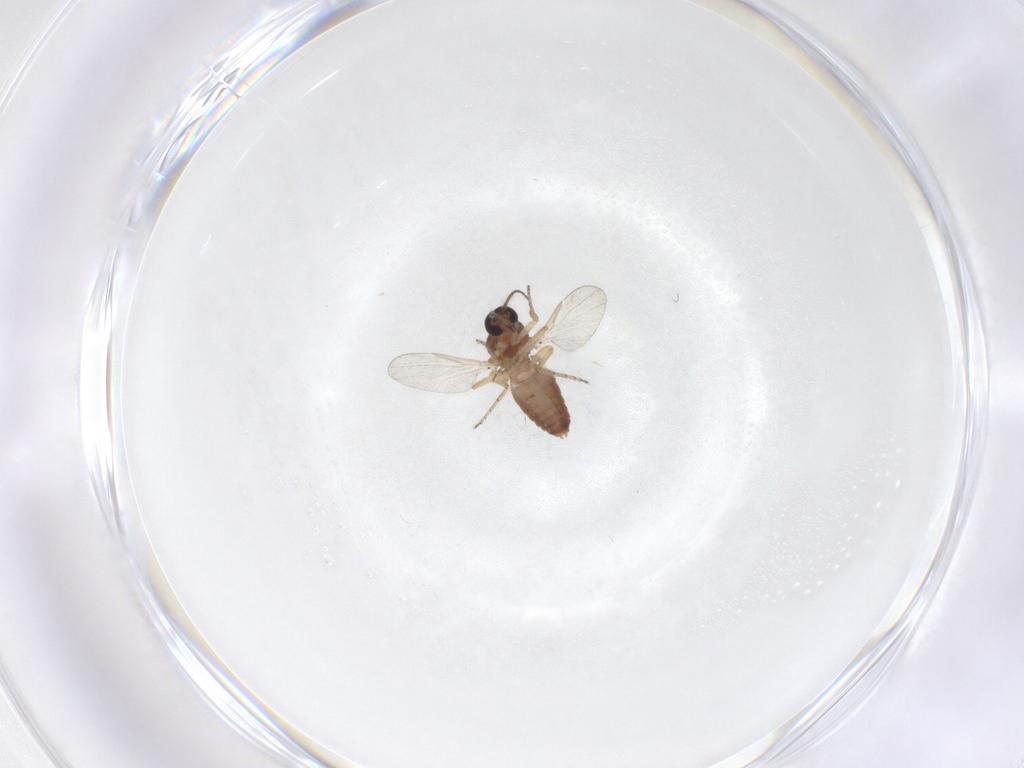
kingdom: Animalia
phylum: Arthropoda
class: Insecta
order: Diptera
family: Ceratopogonidae
